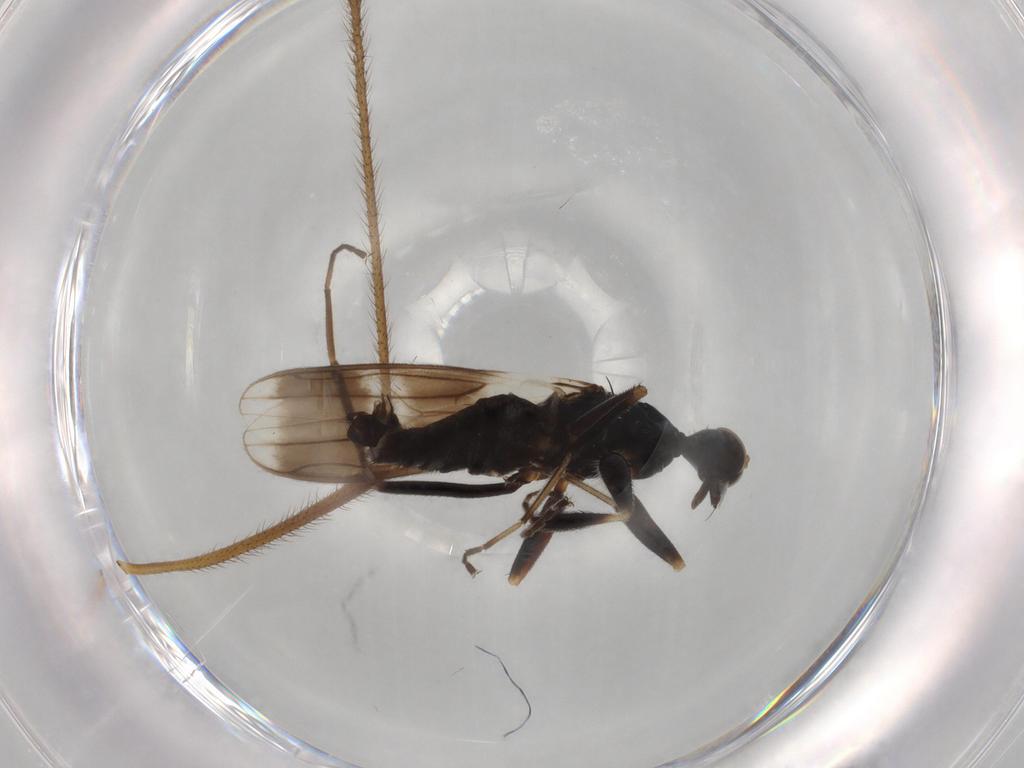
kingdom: Animalia
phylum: Arthropoda
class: Insecta
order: Diptera
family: Hybotidae
